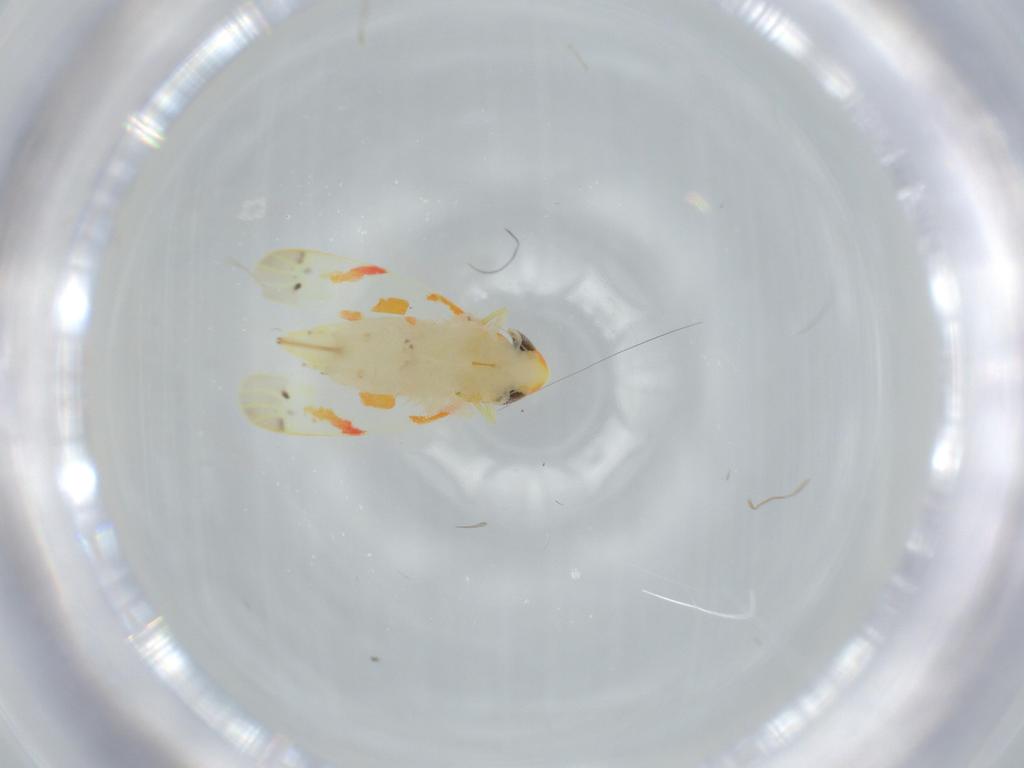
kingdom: Animalia
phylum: Arthropoda
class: Insecta
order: Hemiptera
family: Cicadellidae
